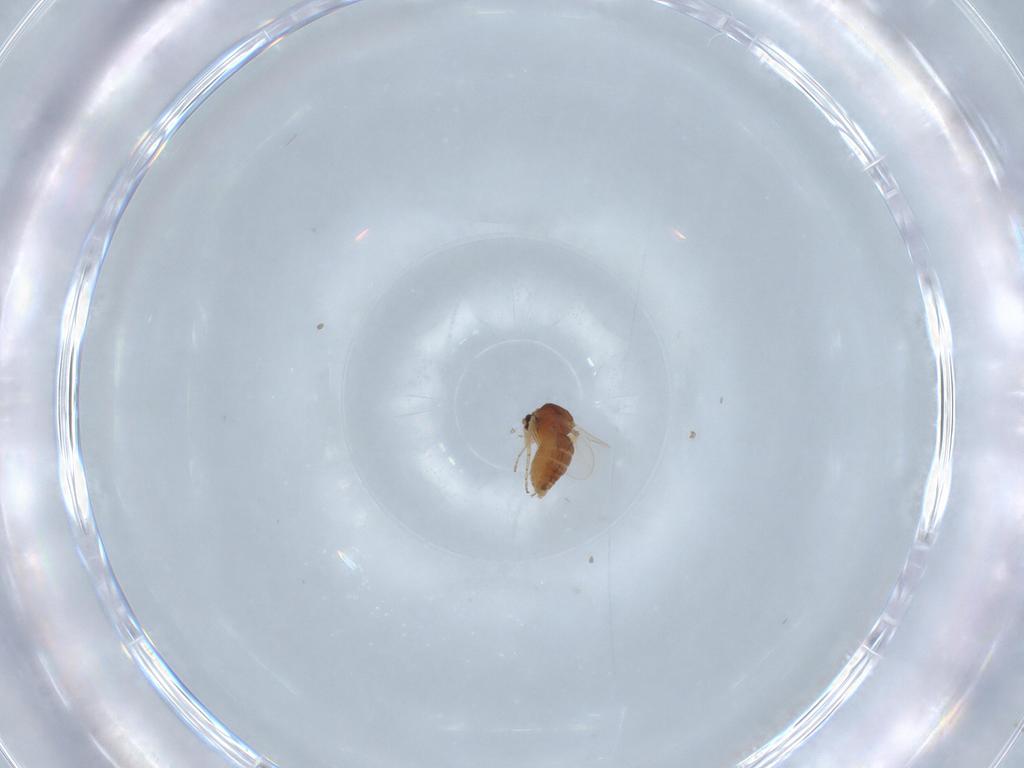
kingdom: Animalia
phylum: Arthropoda
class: Insecta
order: Diptera
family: Ceratopogonidae
